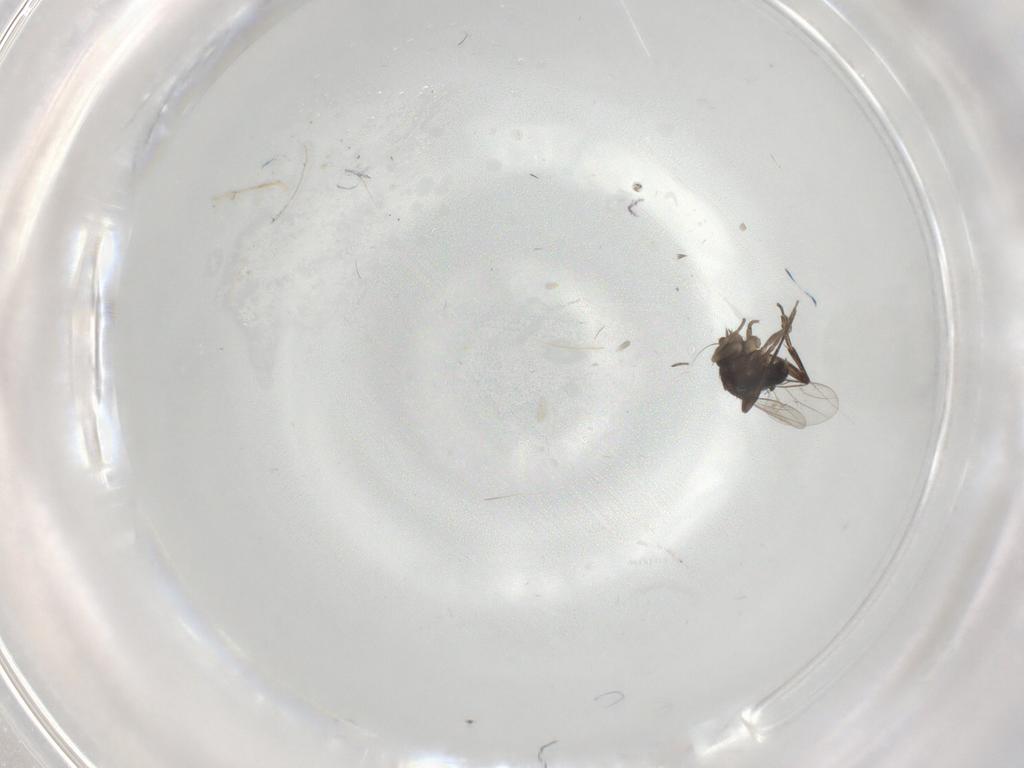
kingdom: Animalia
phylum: Arthropoda
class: Insecta
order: Diptera
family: Phoridae
